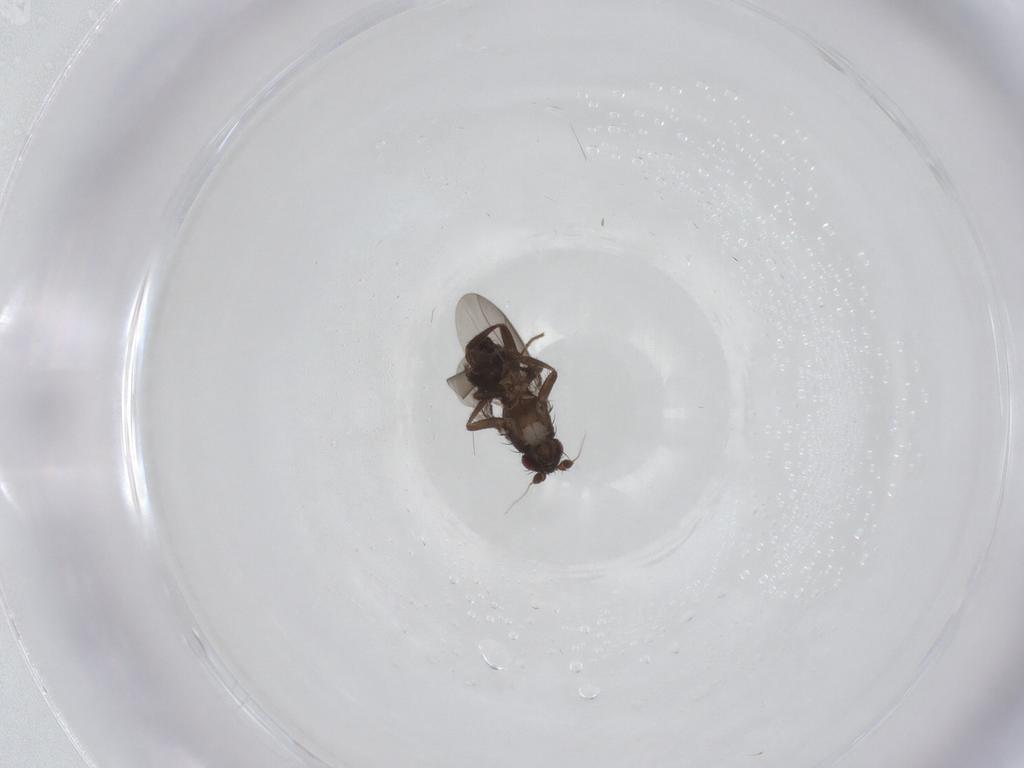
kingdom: Animalia
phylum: Arthropoda
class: Insecta
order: Diptera
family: Sphaeroceridae
